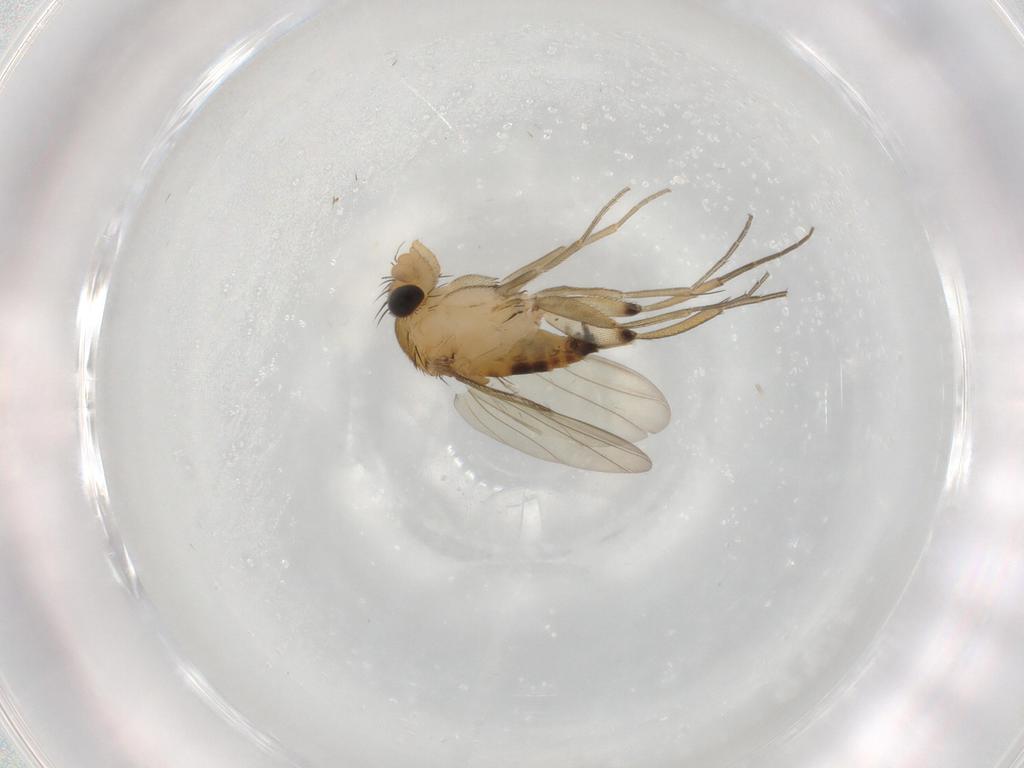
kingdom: Animalia
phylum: Arthropoda
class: Insecta
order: Diptera
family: Phoridae
